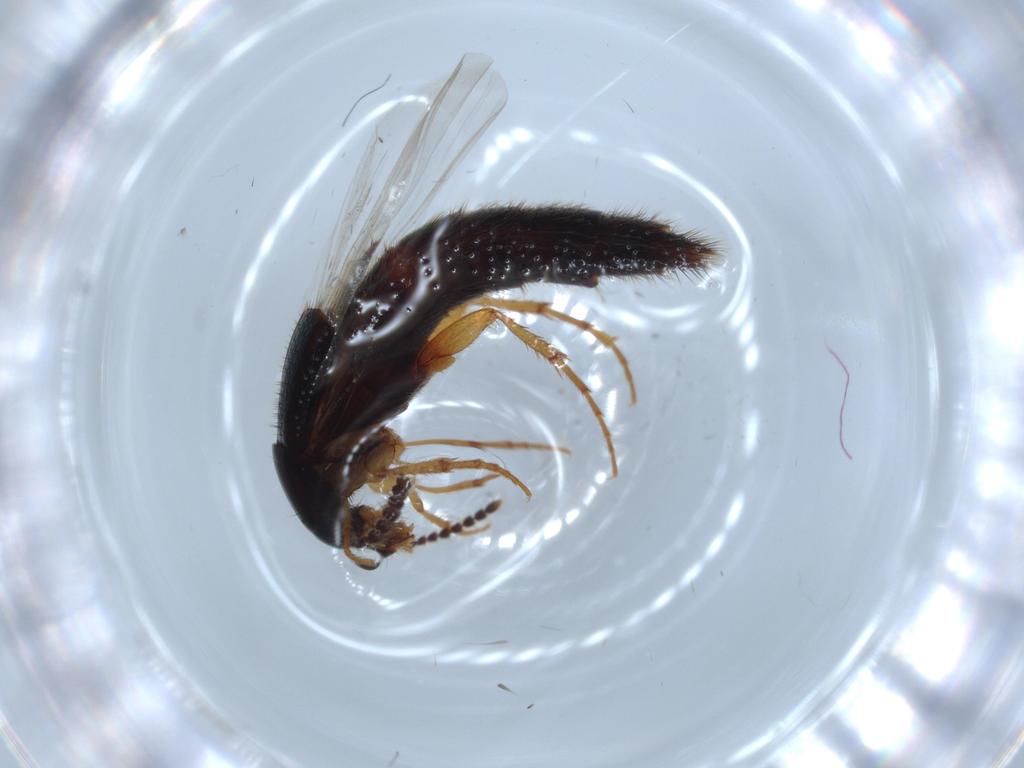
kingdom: Animalia
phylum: Arthropoda
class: Insecta
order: Coleoptera
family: Staphylinidae
